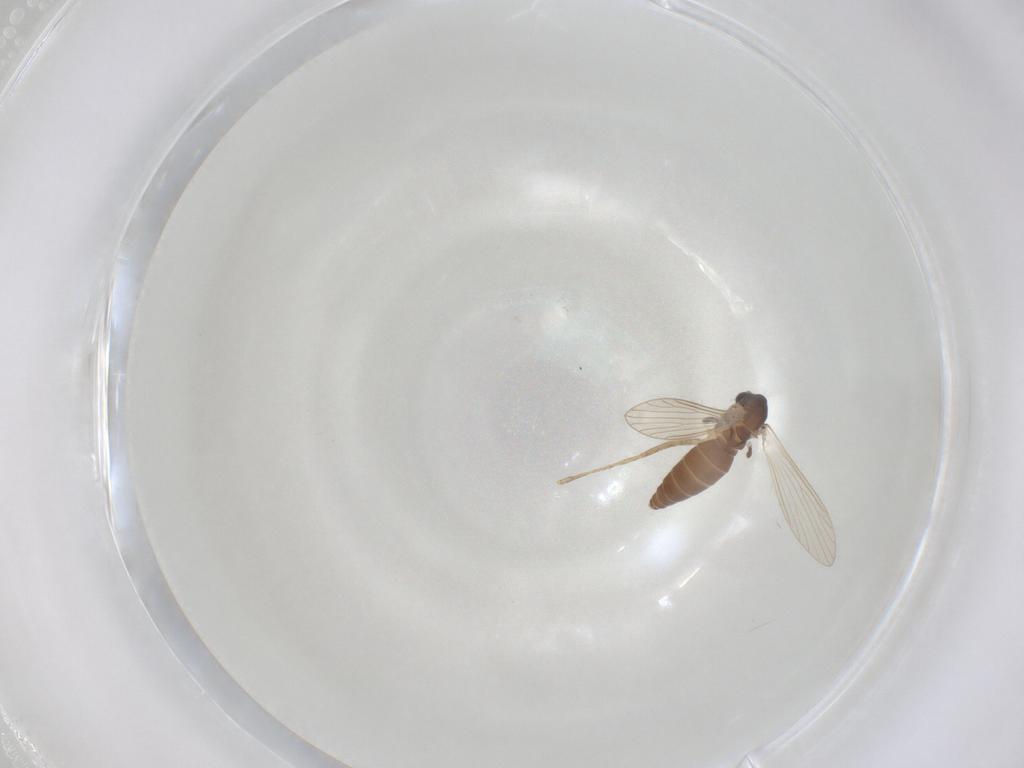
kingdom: Animalia
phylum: Arthropoda
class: Insecta
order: Diptera
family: Psychodidae
